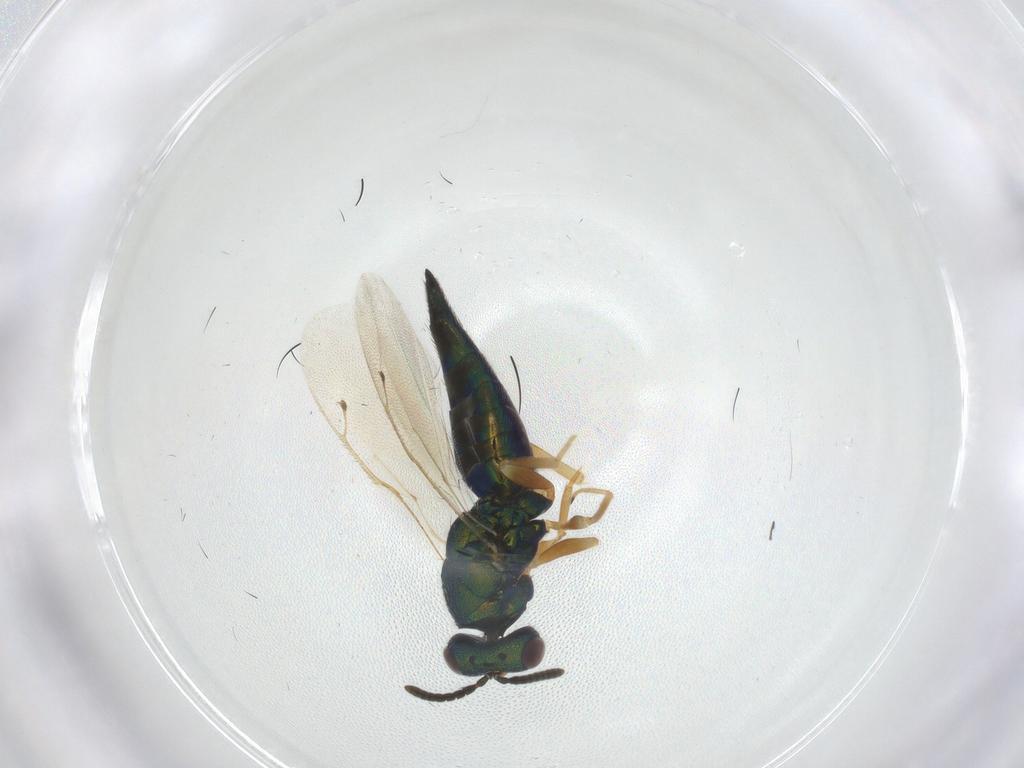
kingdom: Animalia
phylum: Arthropoda
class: Insecta
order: Hymenoptera
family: Pteromalidae
